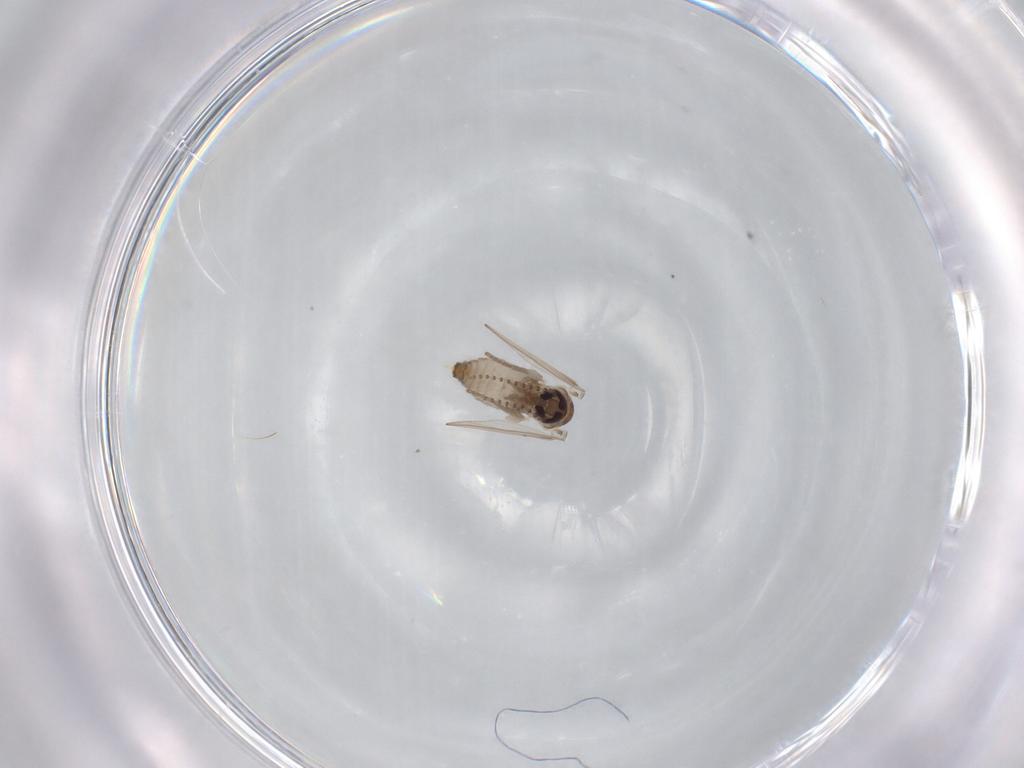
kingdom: Animalia
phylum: Arthropoda
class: Insecta
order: Diptera
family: Psychodidae
